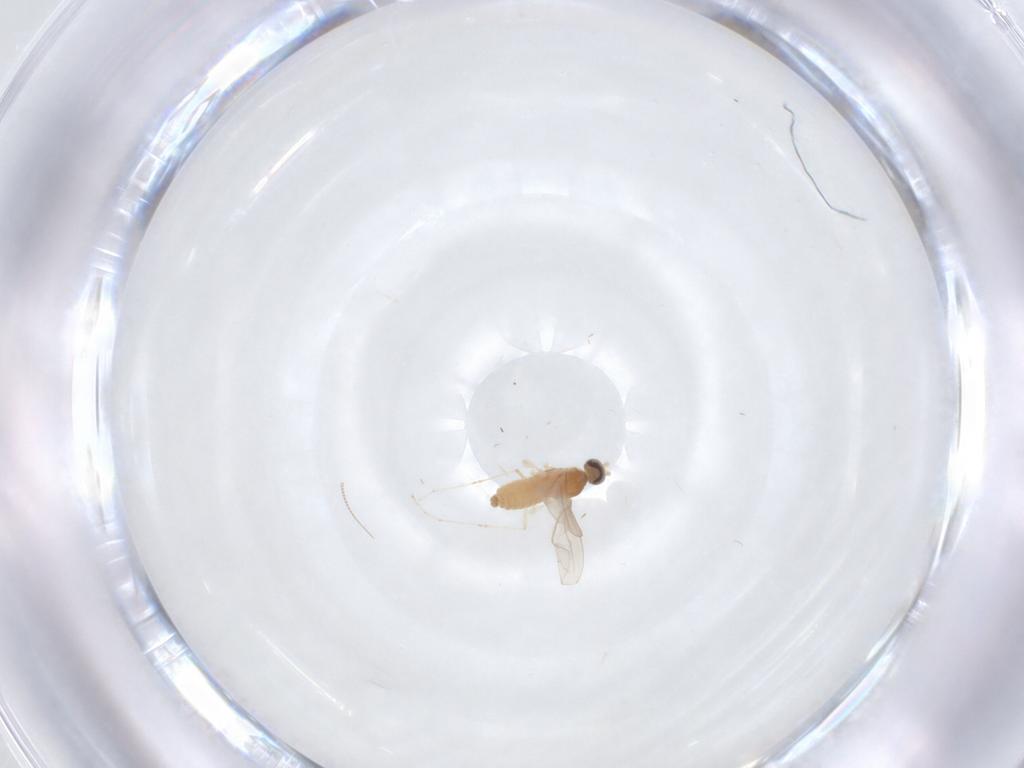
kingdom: Animalia
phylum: Arthropoda
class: Insecta
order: Diptera
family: Cecidomyiidae
